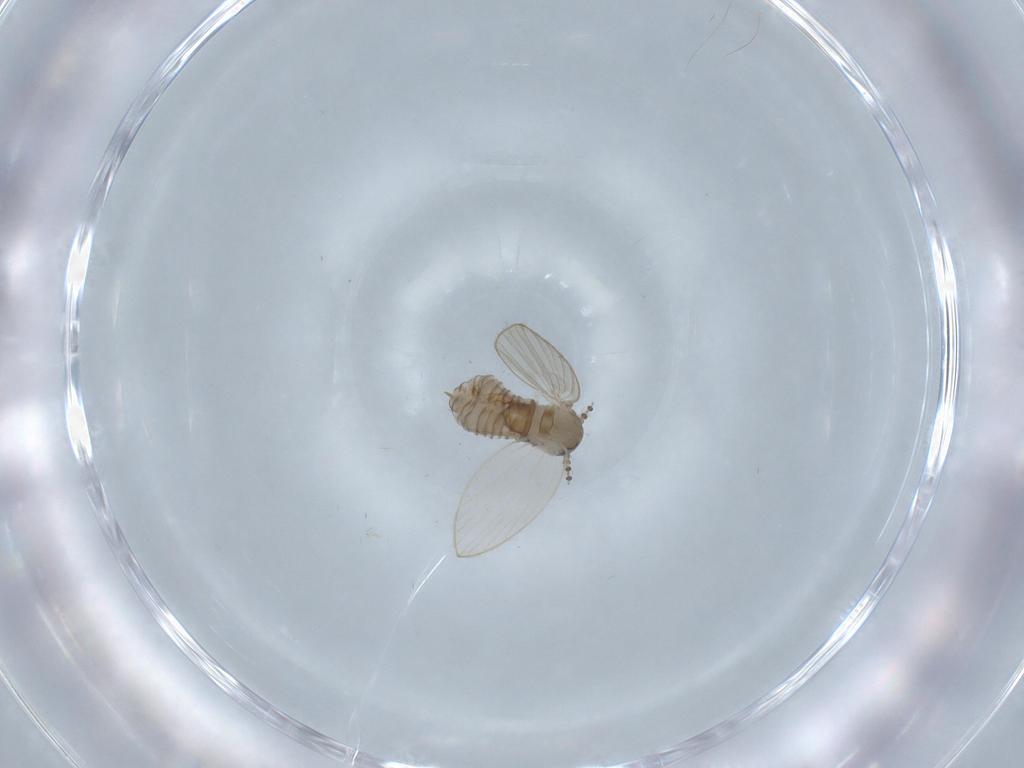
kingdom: Animalia
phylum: Arthropoda
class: Insecta
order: Diptera
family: Psychodidae
